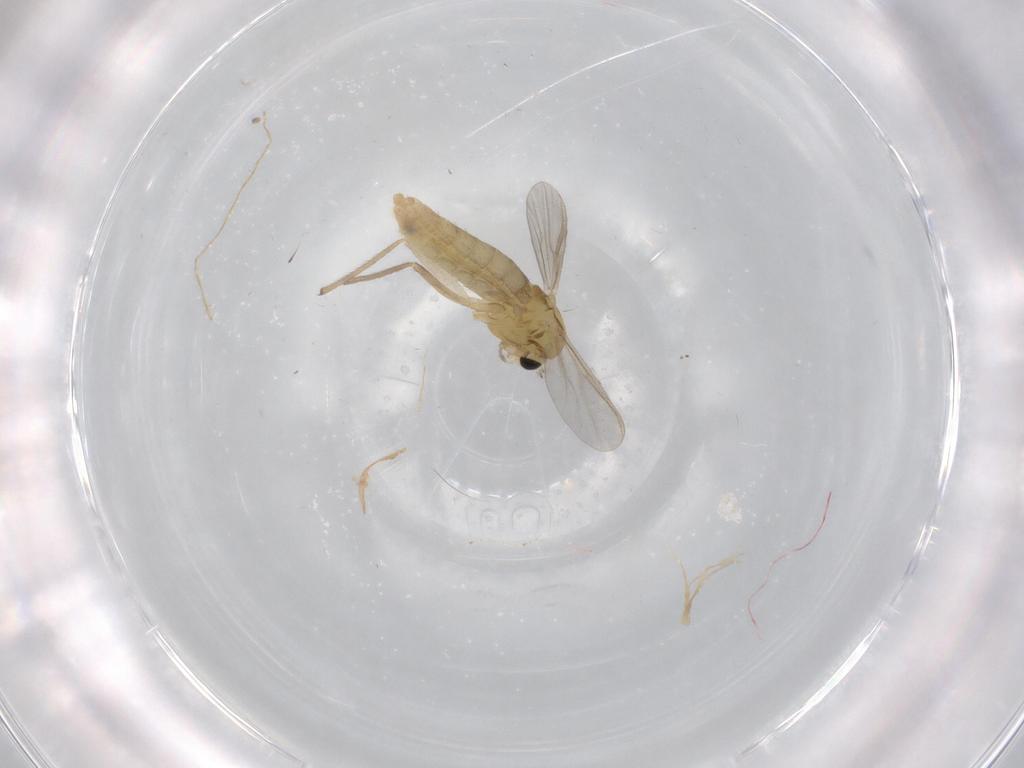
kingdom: Animalia
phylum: Arthropoda
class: Insecta
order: Diptera
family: Chironomidae
